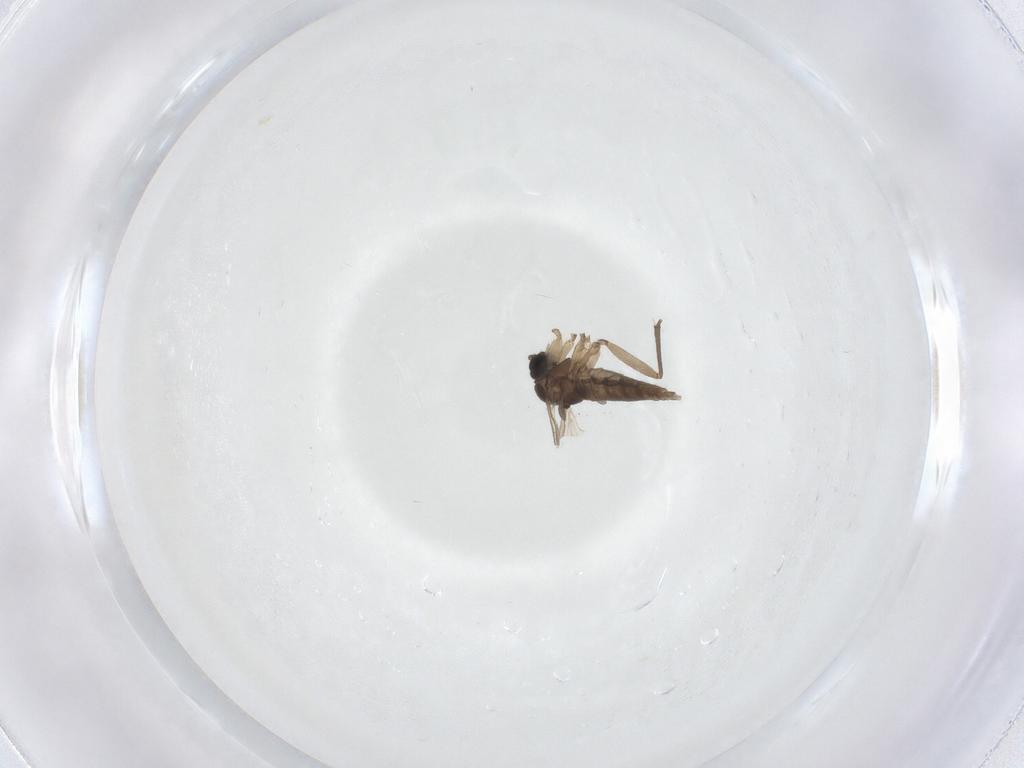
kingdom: Animalia
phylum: Arthropoda
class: Insecta
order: Diptera
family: Sciaridae
